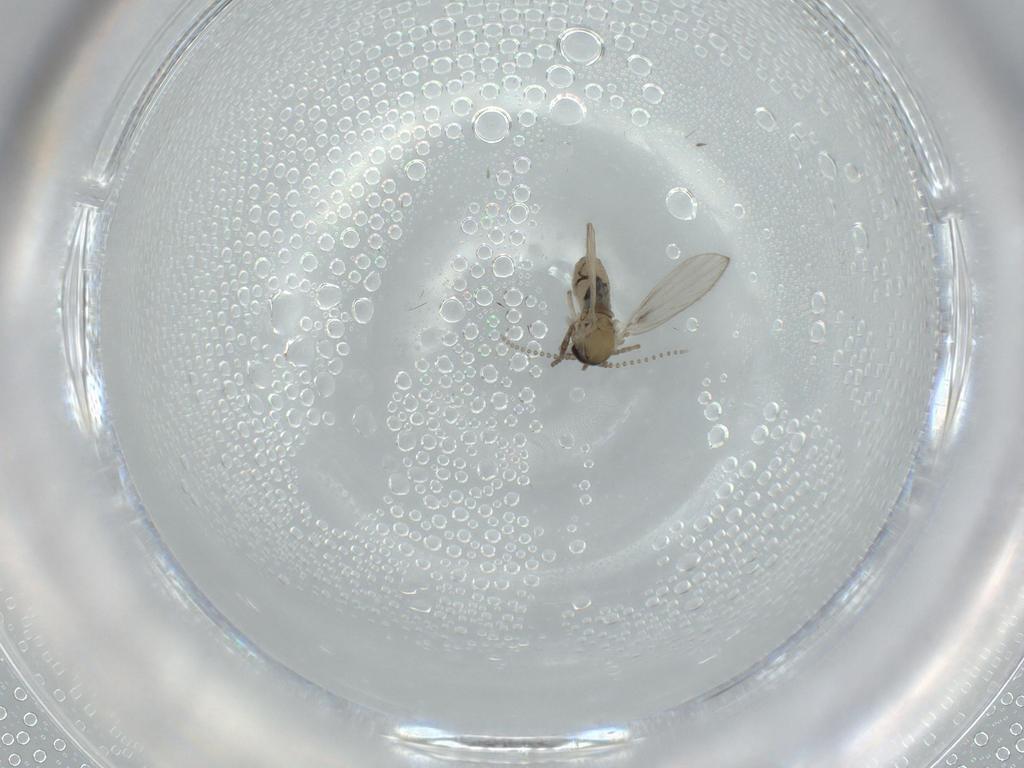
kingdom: Animalia
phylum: Arthropoda
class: Insecta
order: Diptera
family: Psychodidae
